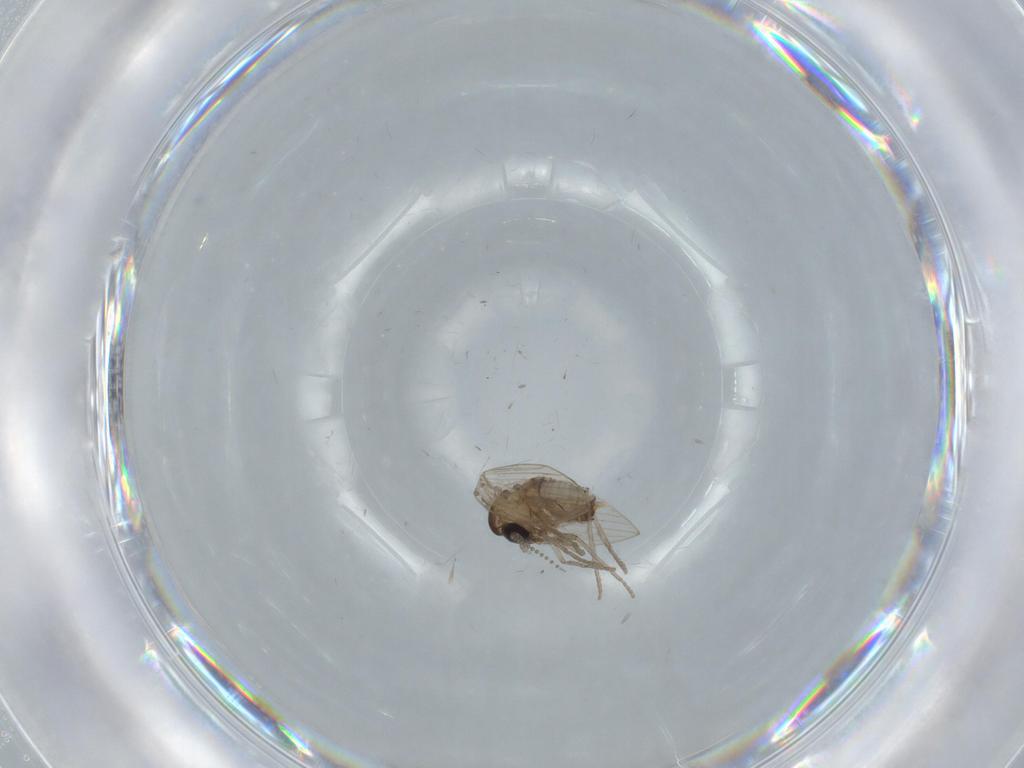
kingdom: Animalia
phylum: Arthropoda
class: Insecta
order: Diptera
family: Psychodidae
